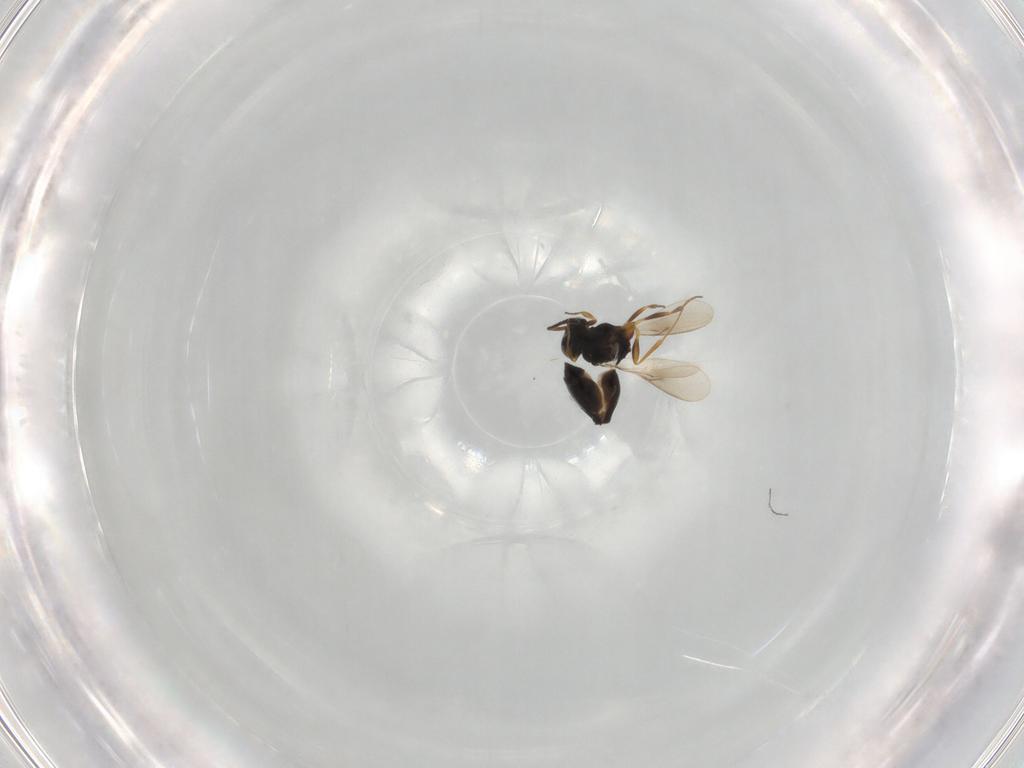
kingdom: Animalia
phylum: Arthropoda
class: Insecta
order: Hymenoptera
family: Scelionidae
